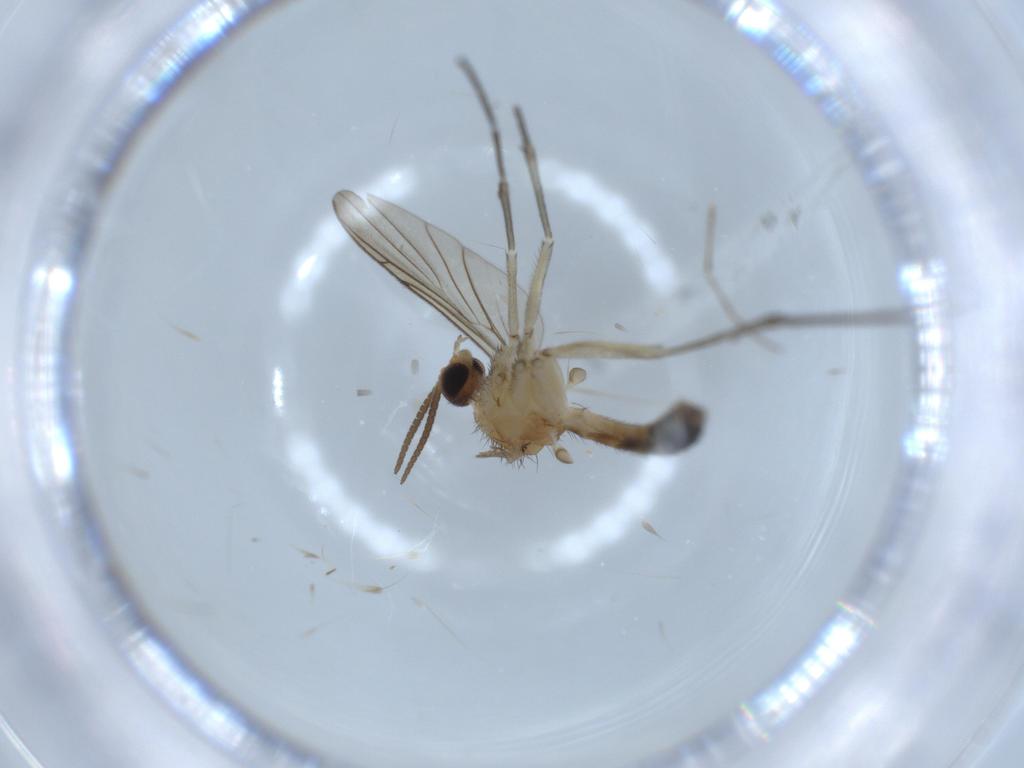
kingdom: Animalia
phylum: Arthropoda
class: Insecta
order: Diptera
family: Keroplatidae
